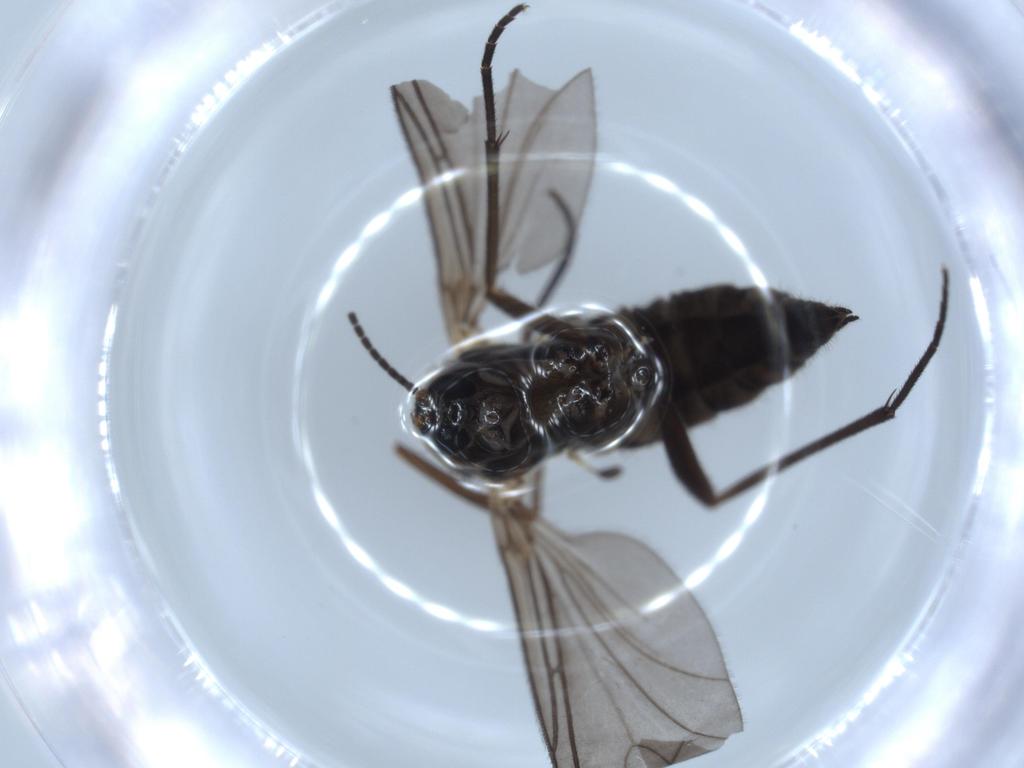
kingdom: Animalia
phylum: Arthropoda
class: Insecta
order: Diptera
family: Sciaridae
